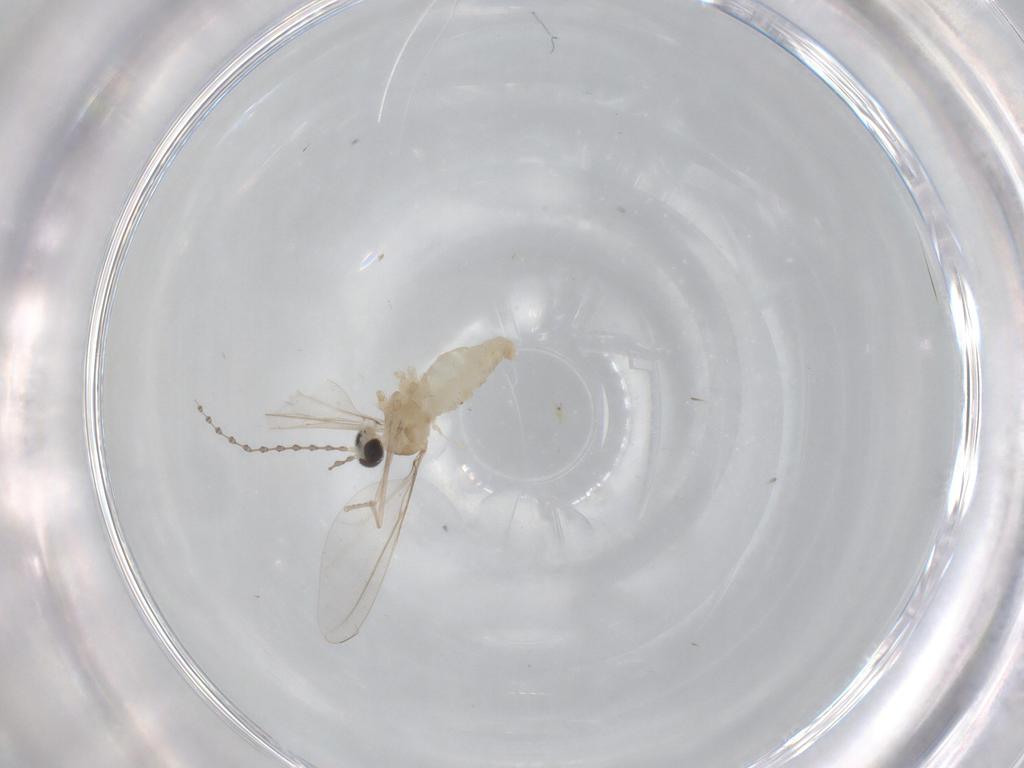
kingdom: Animalia
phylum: Arthropoda
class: Insecta
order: Diptera
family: Cecidomyiidae
